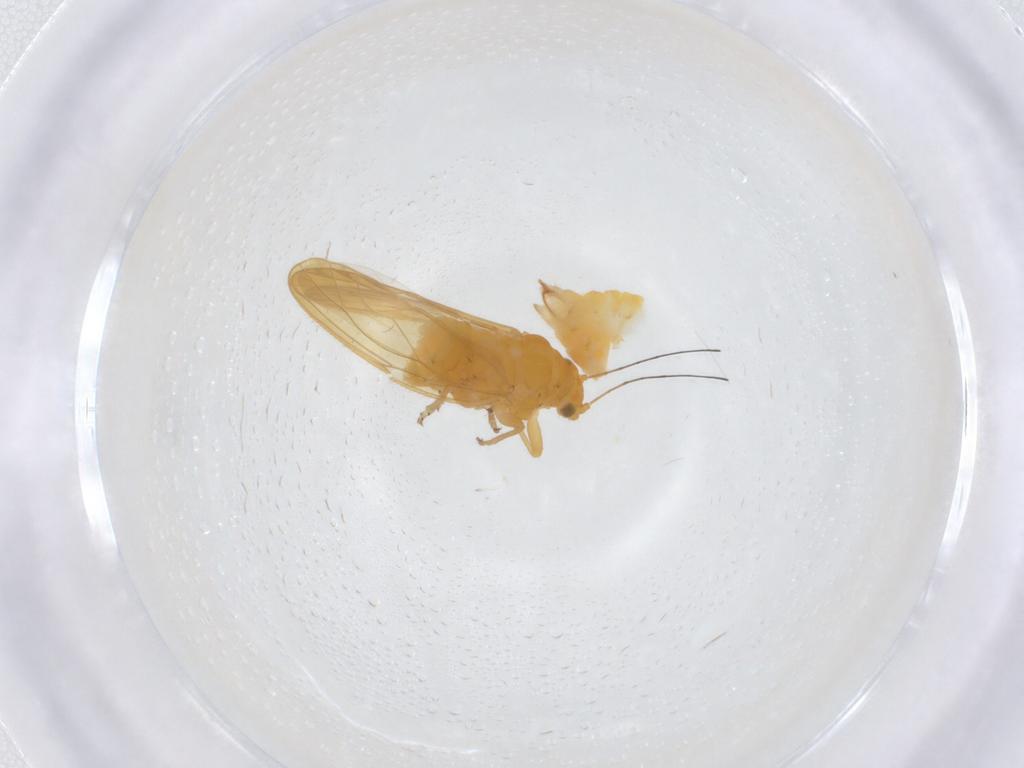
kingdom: Animalia
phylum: Arthropoda
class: Insecta
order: Hemiptera
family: Psyllidae
